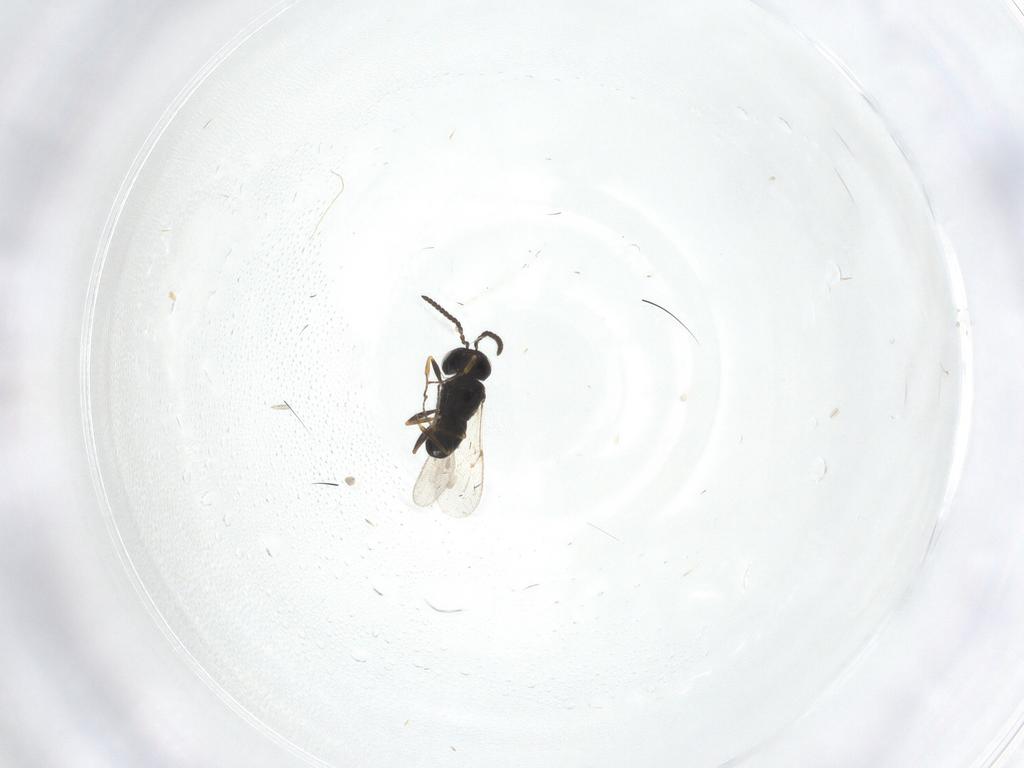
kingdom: Animalia
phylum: Arthropoda
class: Insecta
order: Hymenoptera
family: Scelionidae
